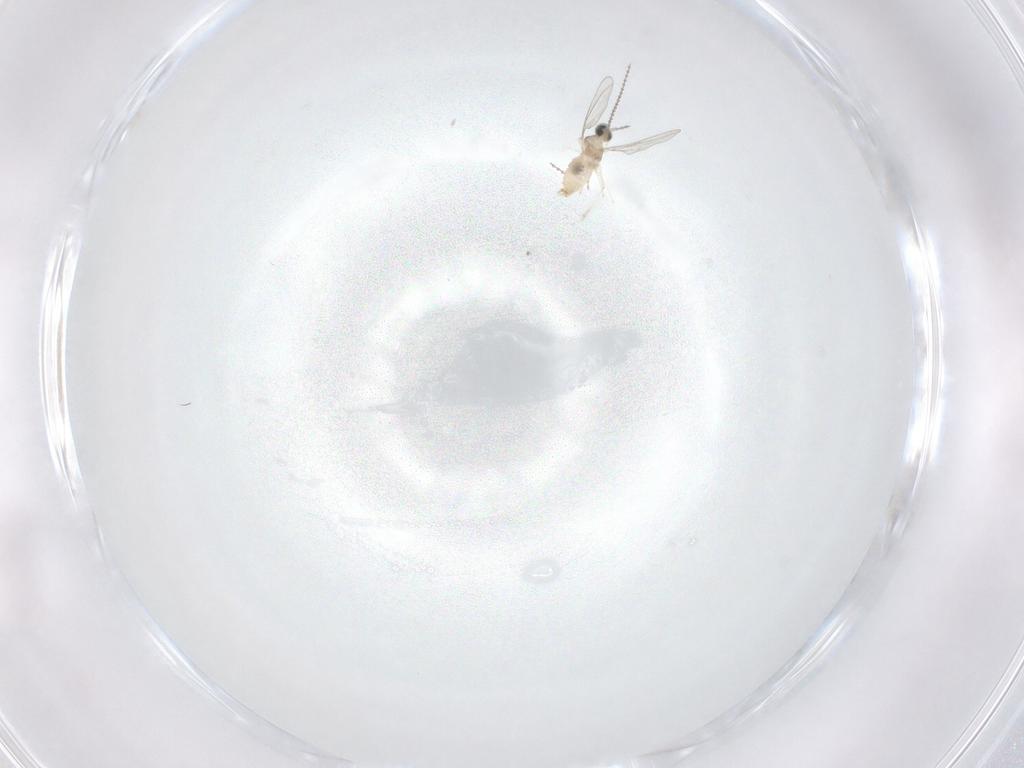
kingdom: Animalia
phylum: Arthropoda
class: Insecta
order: Diptera
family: Cecidomyiidae
